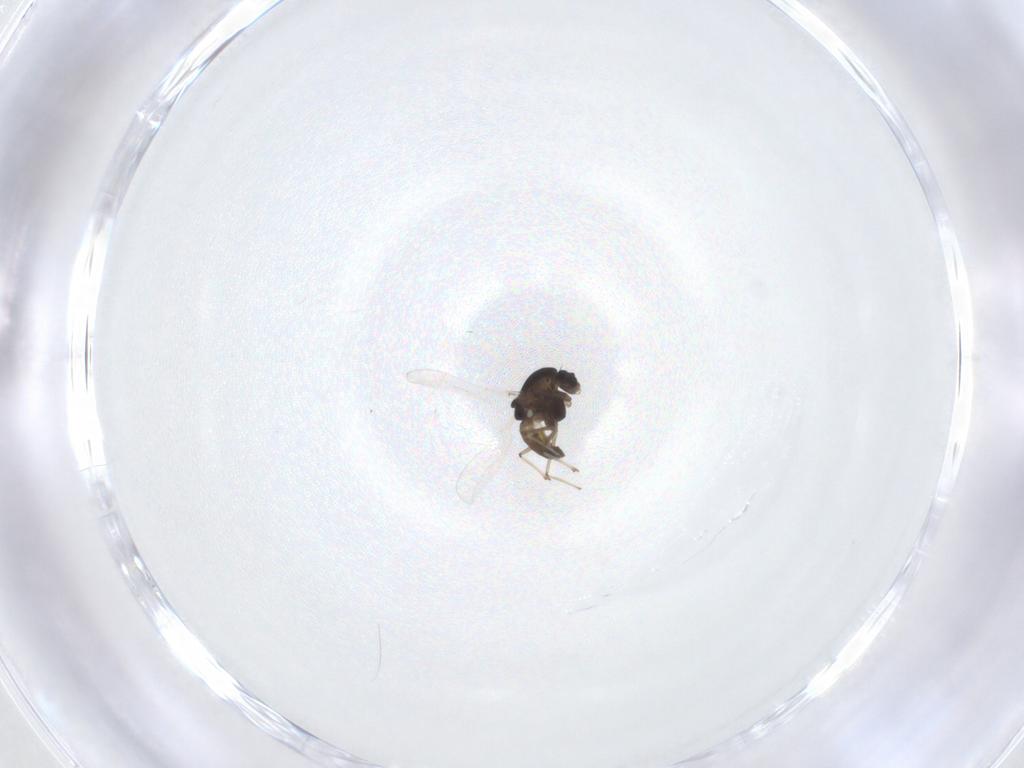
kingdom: Animalia
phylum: Arthropoda
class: Insecta
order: Diptera
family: Chironomidae
